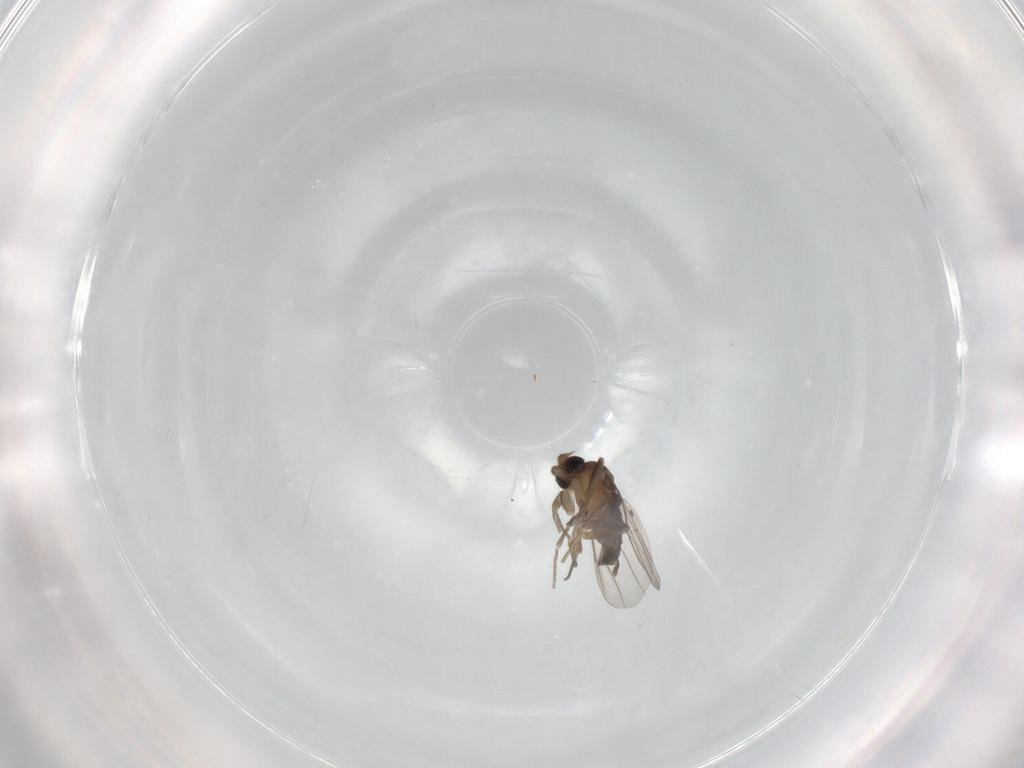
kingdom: Animalia
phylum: Arthropoda
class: Insecta
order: Diptera
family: Phoridae
